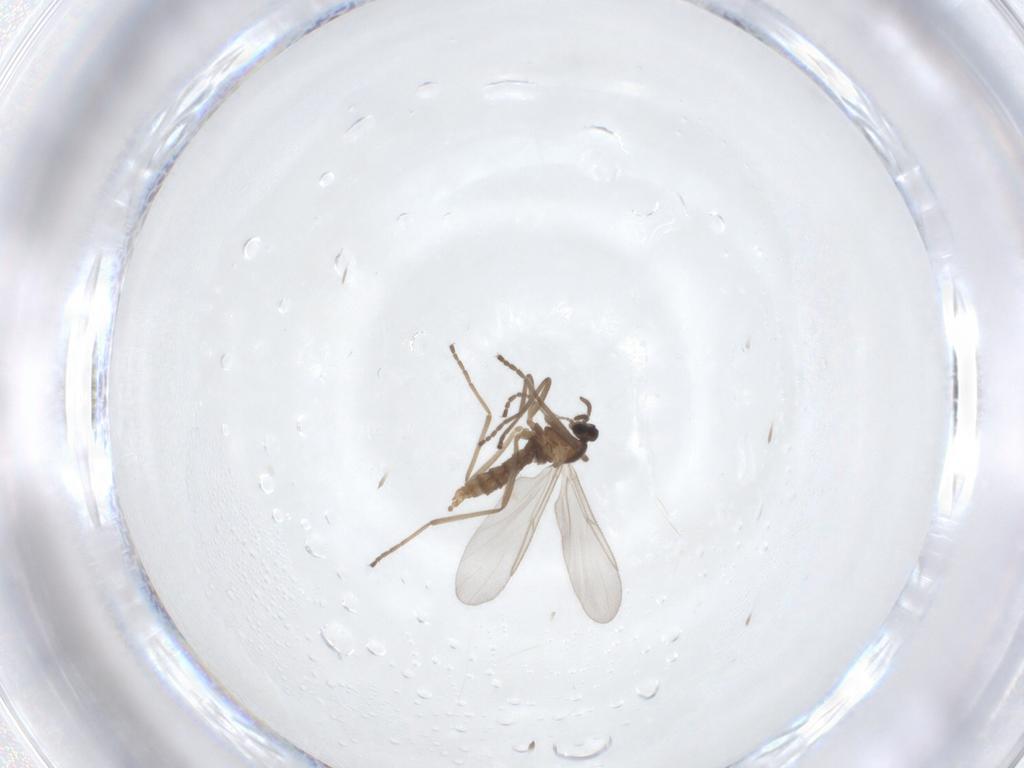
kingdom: Animalia
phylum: Arthropoda
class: Insecta
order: Diptera
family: Cecidomyiidae
